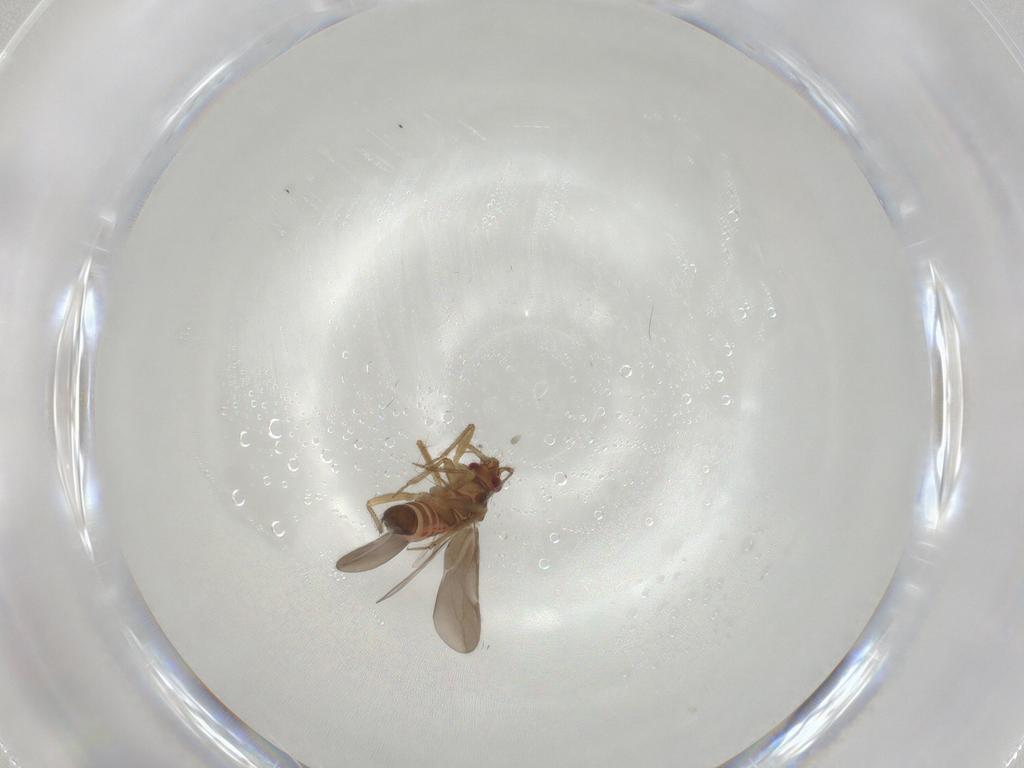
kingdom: Animalia
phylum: Arthropoda
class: Insecta
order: Hemiptera
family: Ceratocombidae
